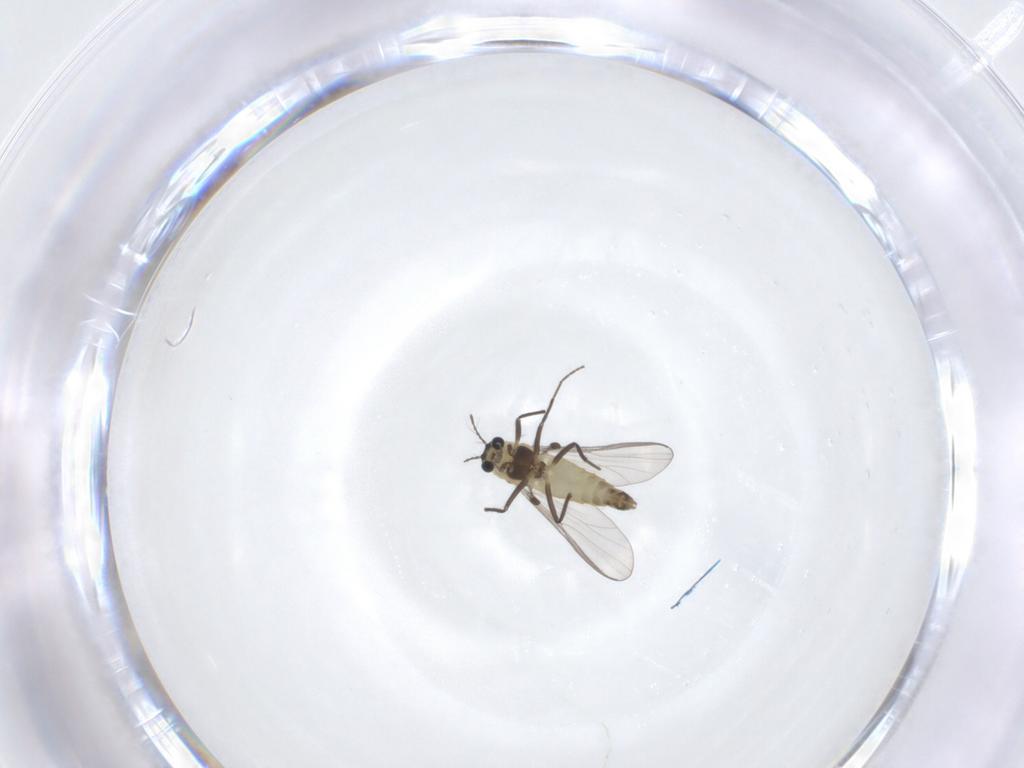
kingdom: Animalia
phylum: Arthropoda
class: Insecta
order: Diptera
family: Chironomidae
